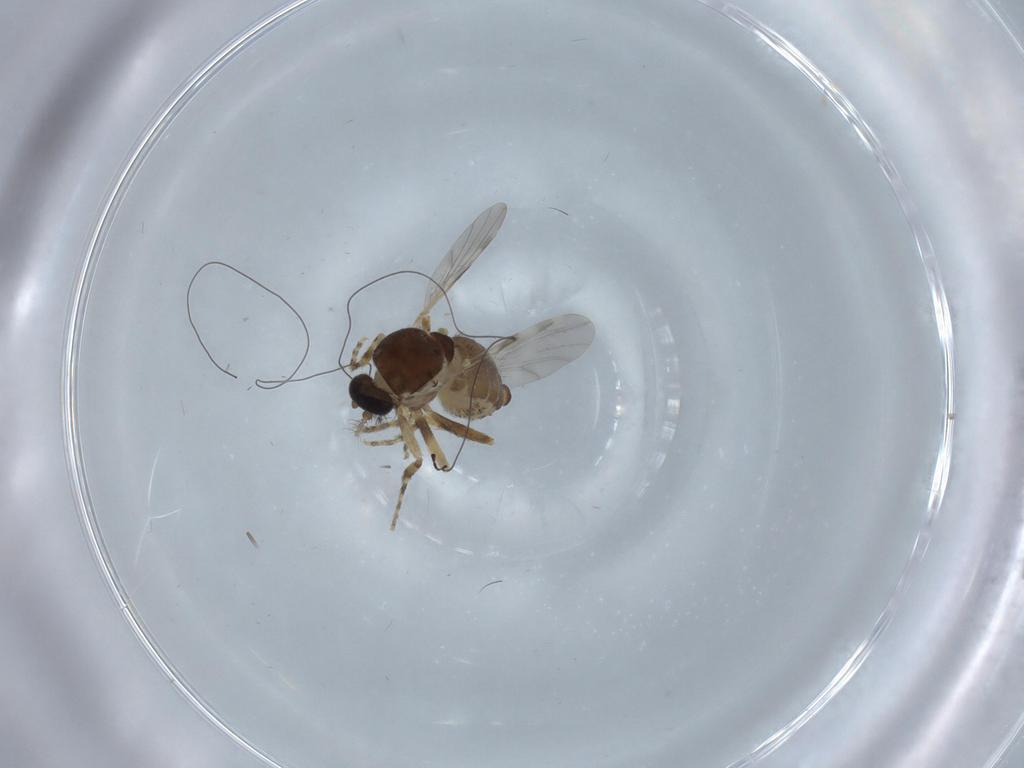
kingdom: Animalia
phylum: Arthropoda
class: Insecta
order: Diptera
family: Ceratopogonidae
